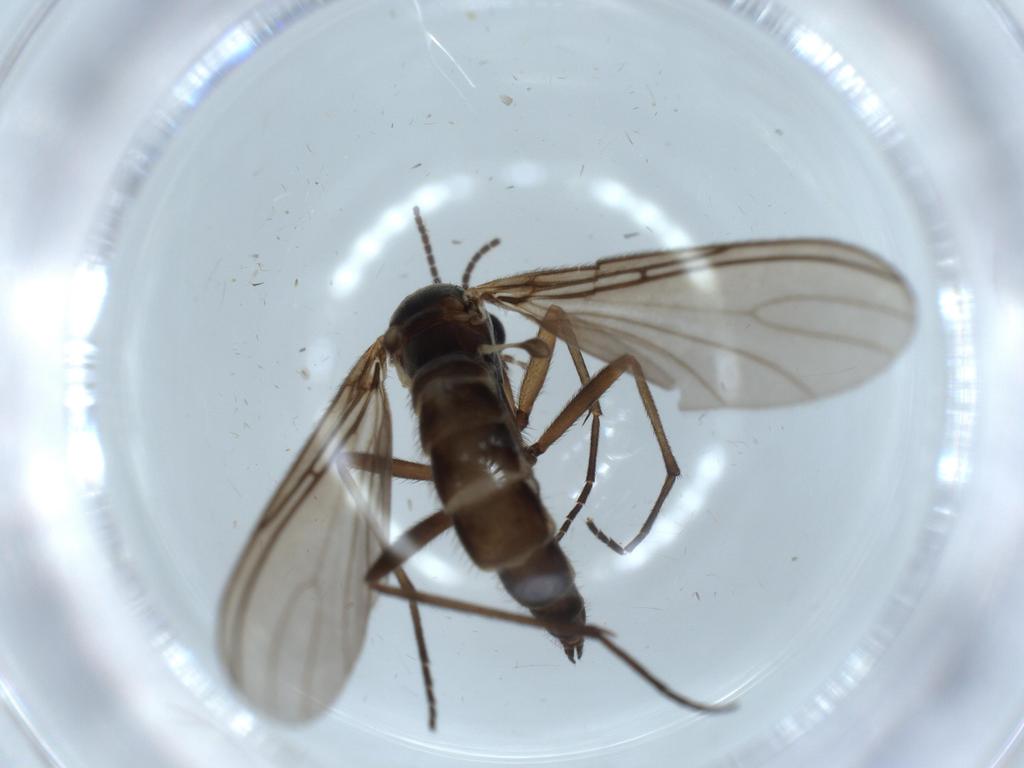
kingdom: Animalia
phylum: Arthropoda
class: Insecta
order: Diptera
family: Sciaridae
